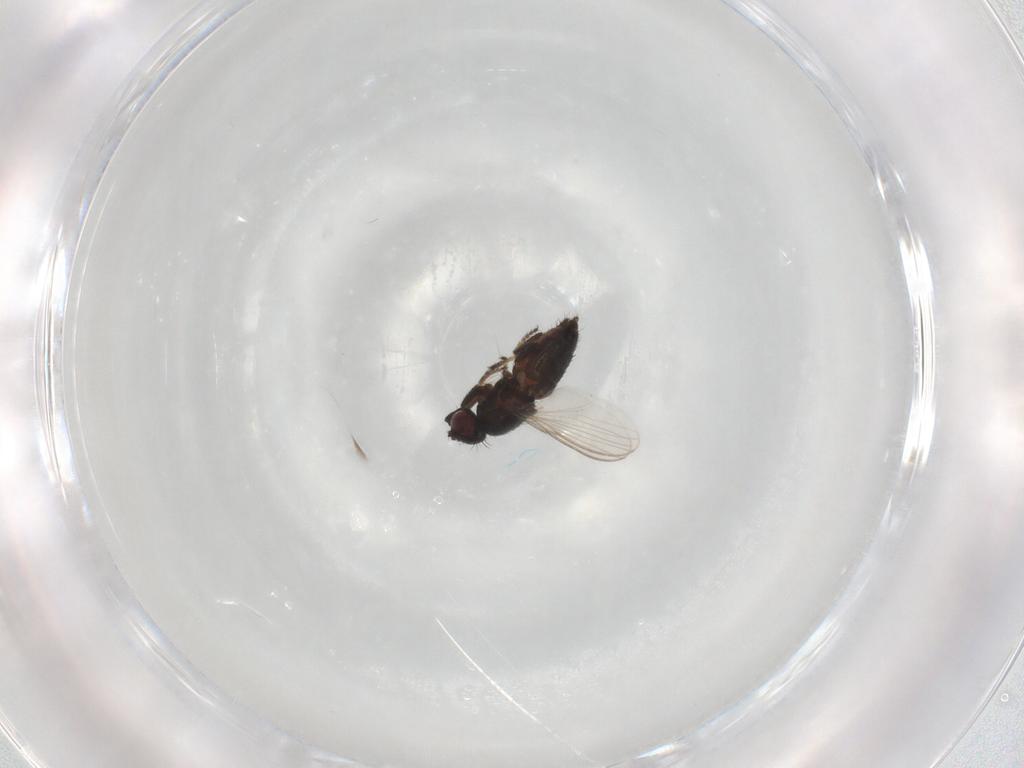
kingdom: Animalia
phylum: Arthropoda
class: Insecta
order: Diptera
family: Milichiidae
